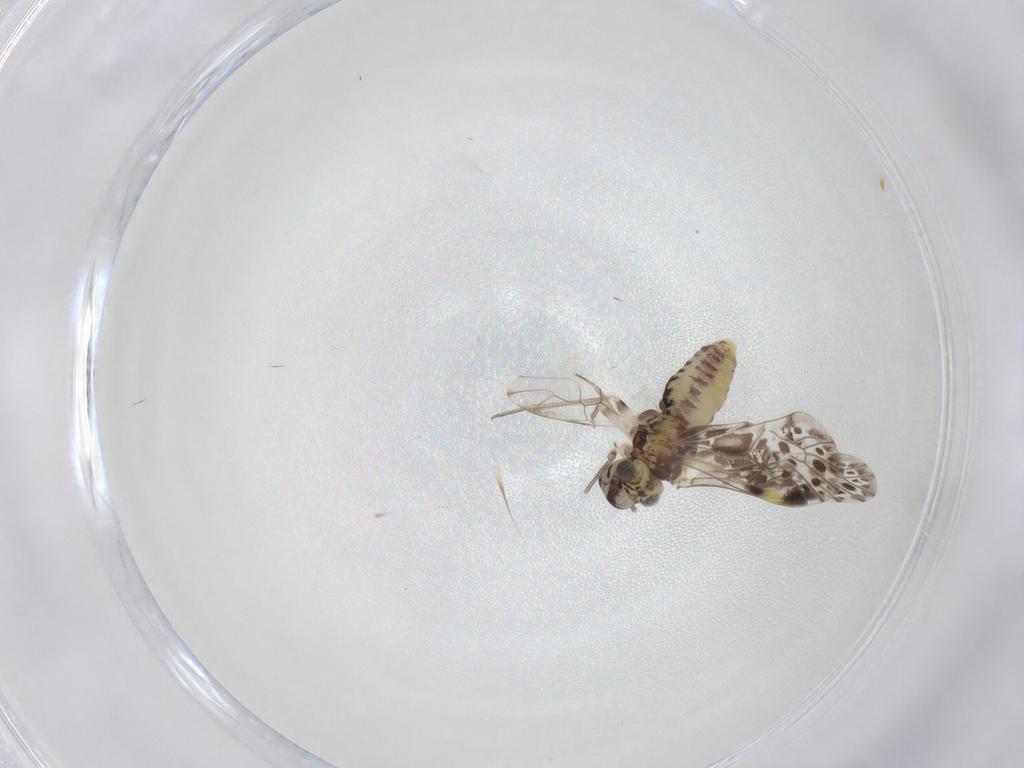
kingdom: Animalia
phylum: Arthropoda
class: Insecta
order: Psocodea
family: Psocidae
